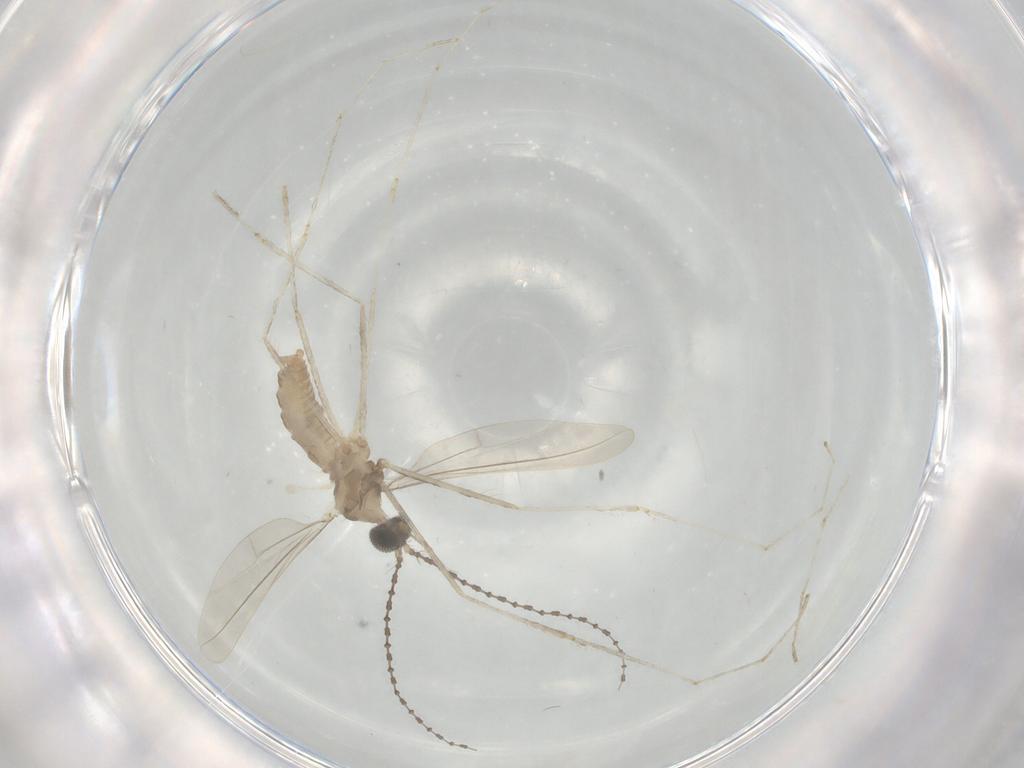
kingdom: Animalia
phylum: Arthropoda
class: Insecta
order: Diptera
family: Cecidomyiidae
